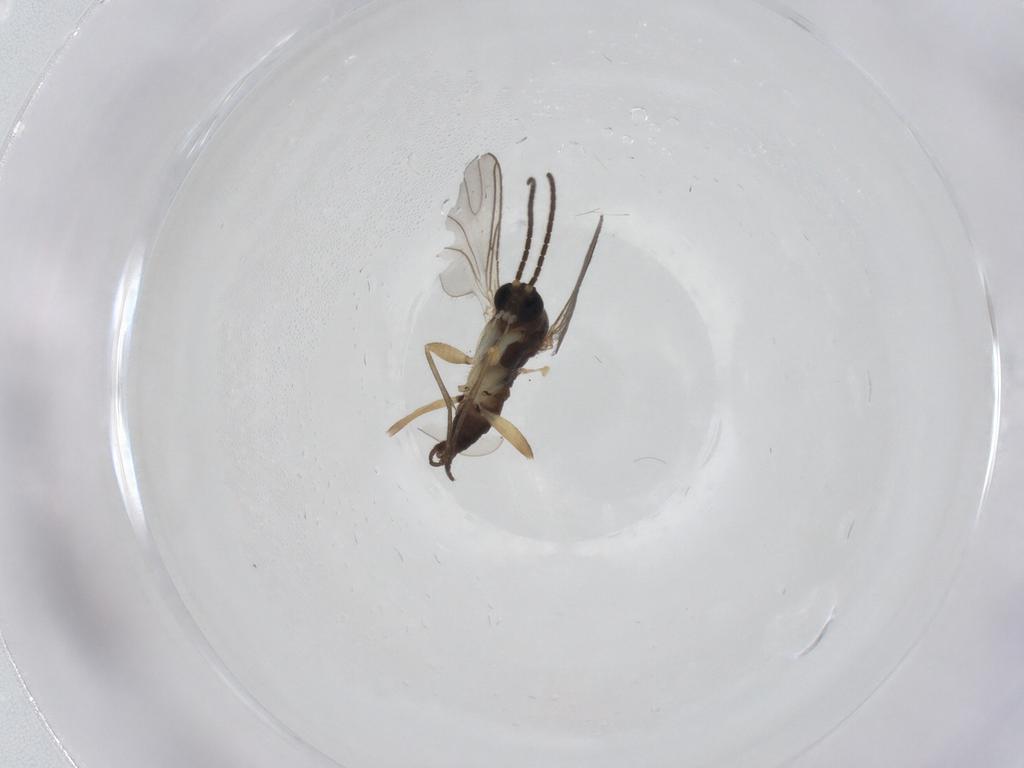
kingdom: Animalia
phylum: Arthropoda
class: Insecta
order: Diptera
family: Sciaridae
